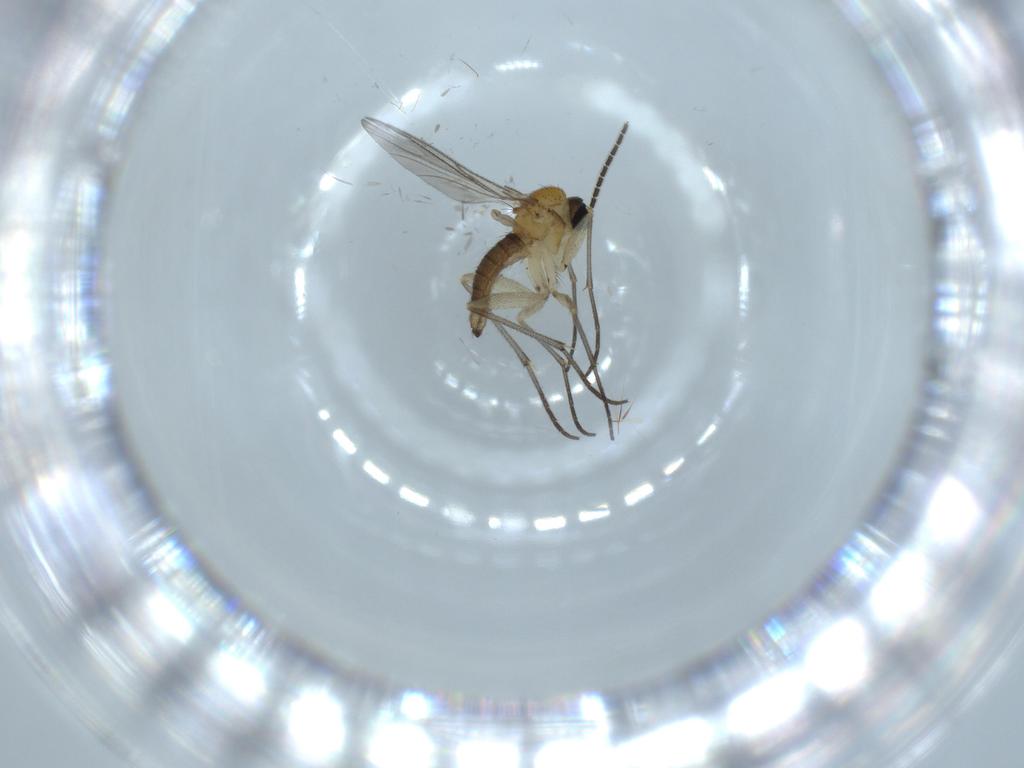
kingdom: Animalia
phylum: Arthropoda
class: Insecta
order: Diptera
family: Sciaridae
